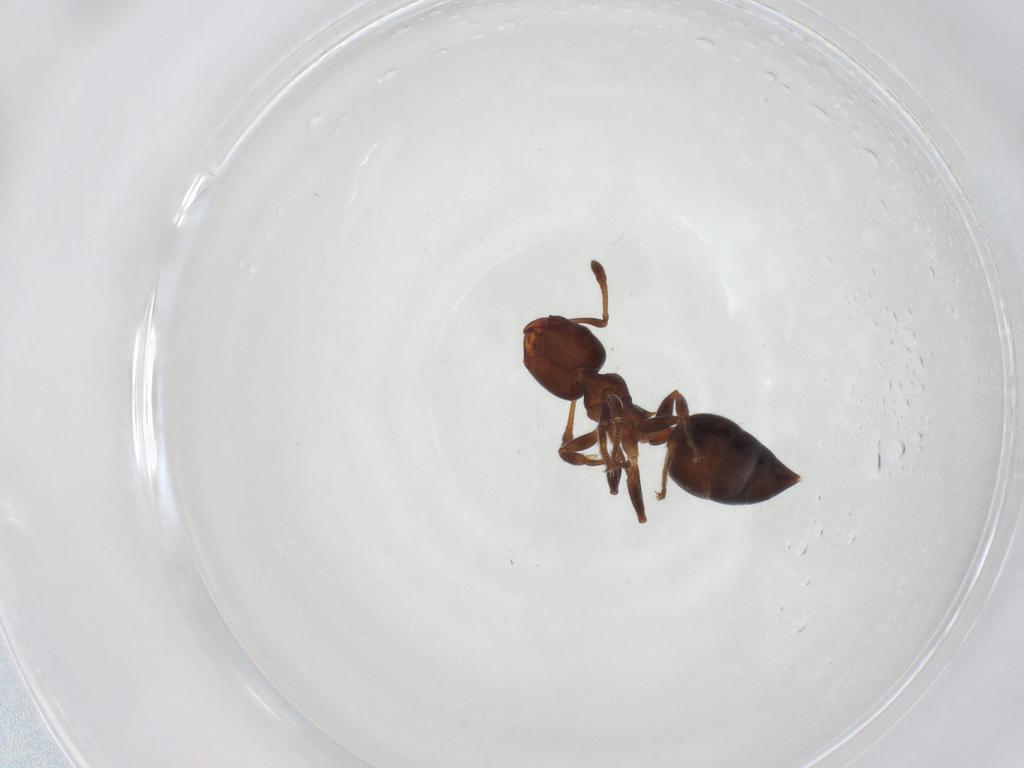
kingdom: Animalia
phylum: Arthropoda
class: Insecta
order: Hymenoptera
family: Formicidae
